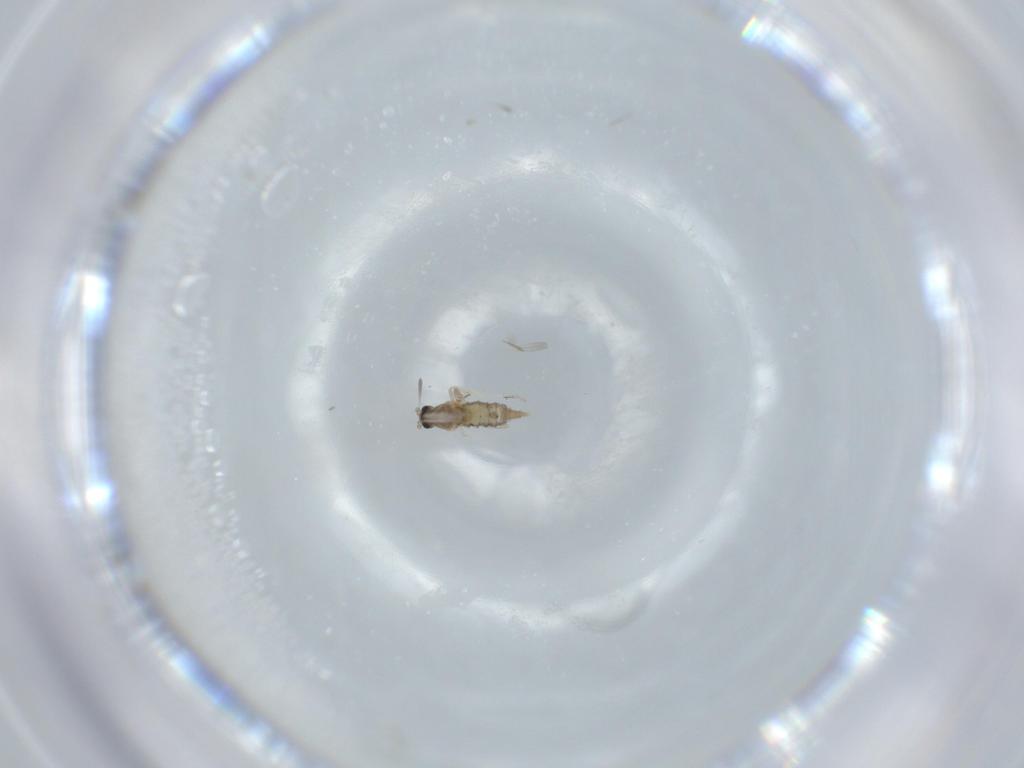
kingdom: Animalia
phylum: Arthropoda
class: Insecta
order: Diptera
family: Cecidomyiidae
